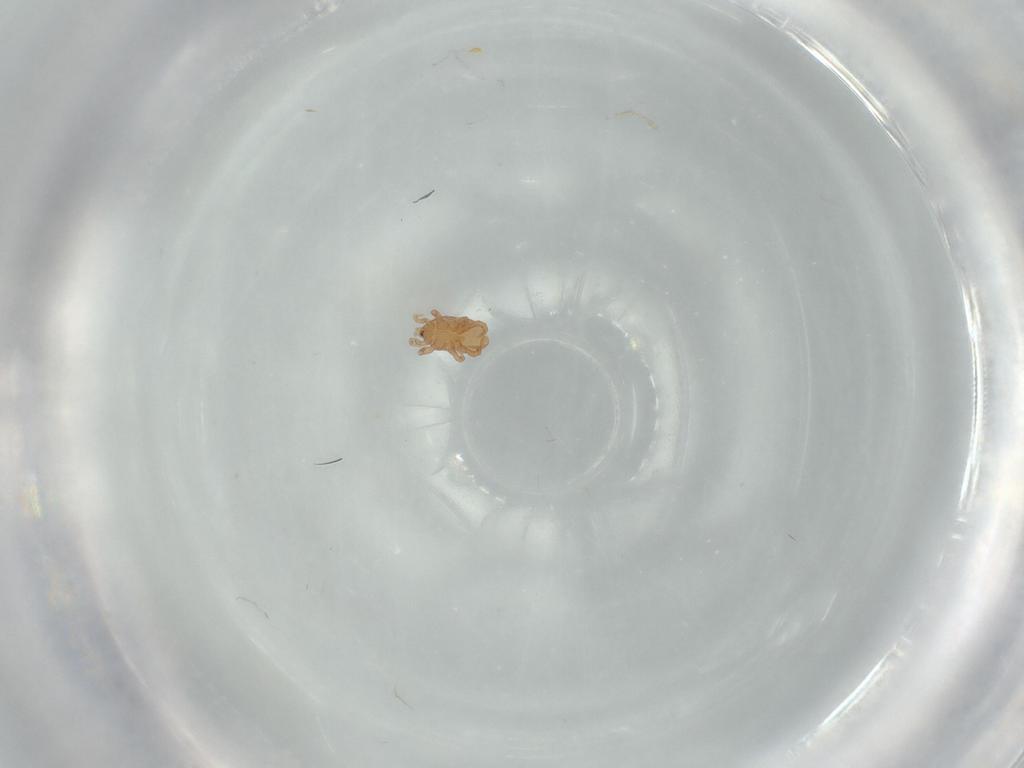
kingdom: Animalia
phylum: Arthropoda
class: Arachnida
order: Mesostigmata
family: Halolaelapidae
